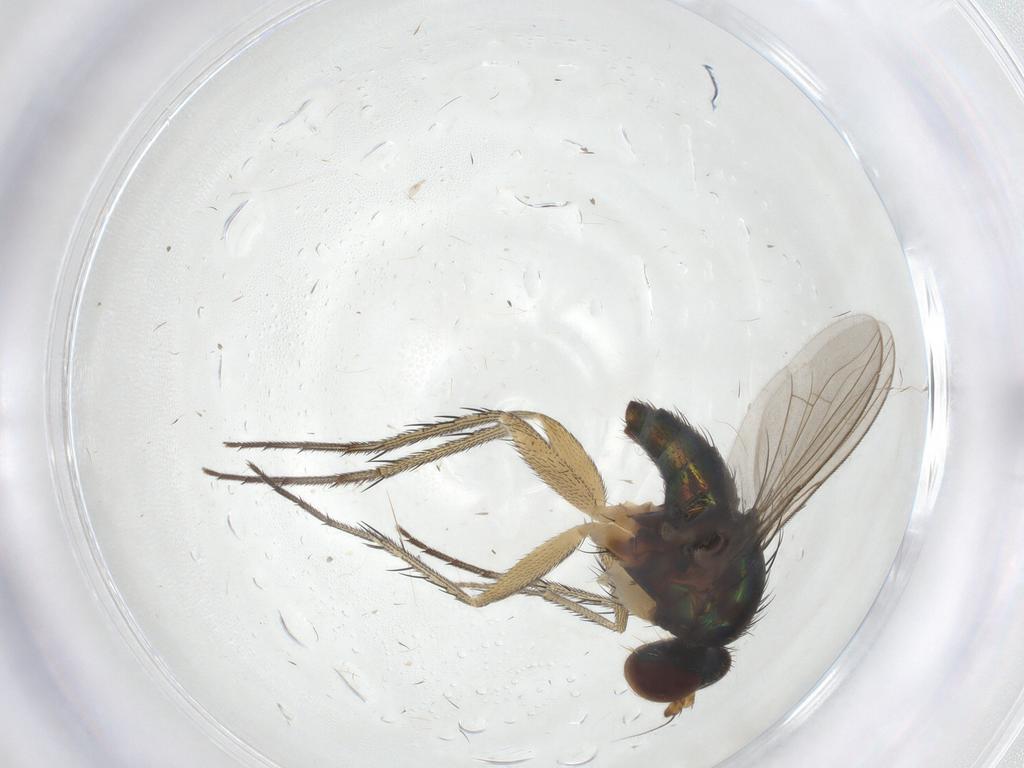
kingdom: Animalia
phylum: Arthropoda
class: Insecta
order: Diptera
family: Dolichopodidae
